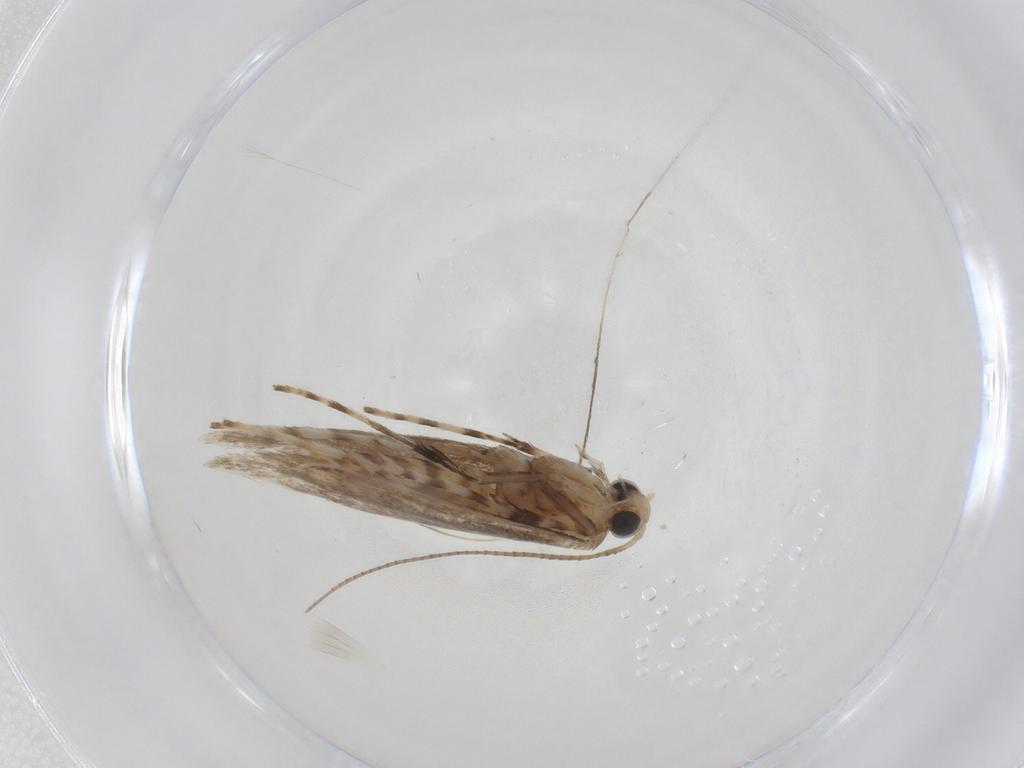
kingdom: Animalia
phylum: Arthropoda
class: Insecta
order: Lepidoptera
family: Gracillariidae
